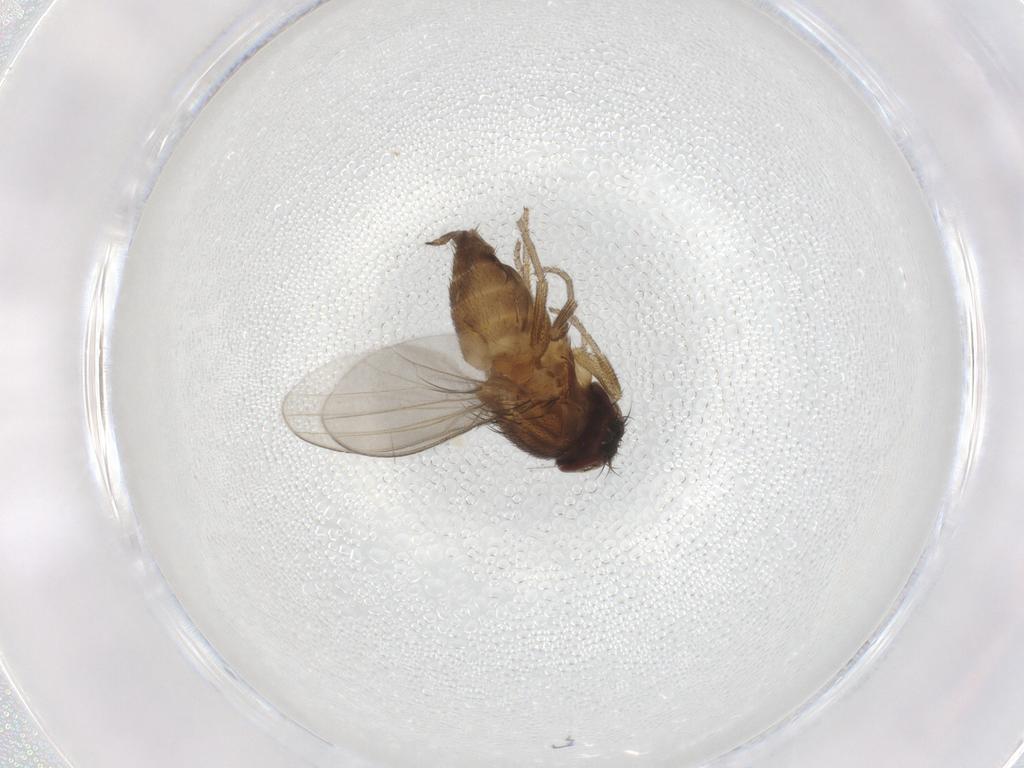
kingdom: Animalia
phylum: Arthropoda
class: Insecta
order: Diptera
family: Milichiidae
